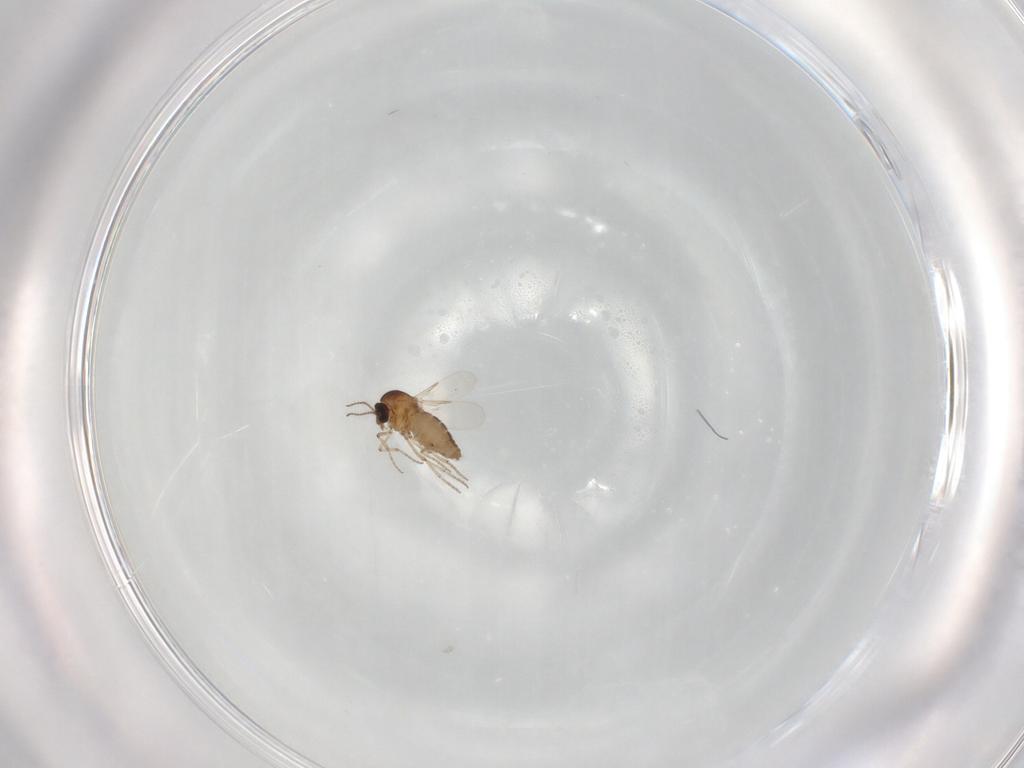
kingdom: Animalia
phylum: Arthropoda
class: Insecta
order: Diptera
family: Ceratopogonidae
